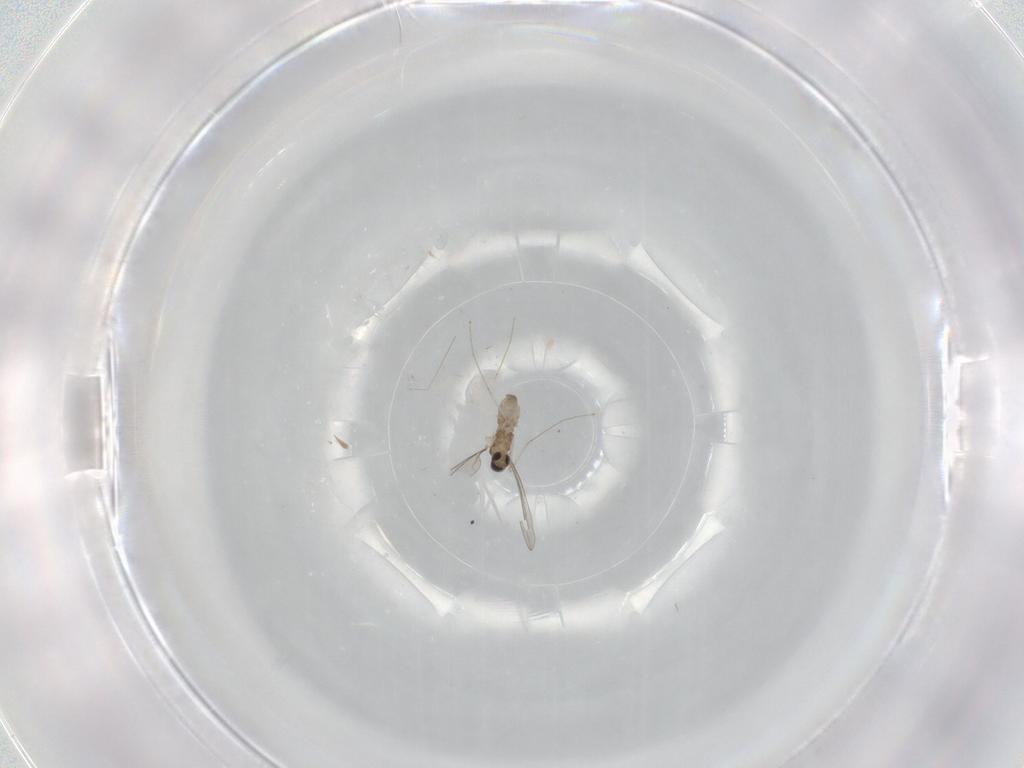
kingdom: Animalia
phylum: Arthropoda
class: Insecta
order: Diptera
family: Cecidomyiidae
